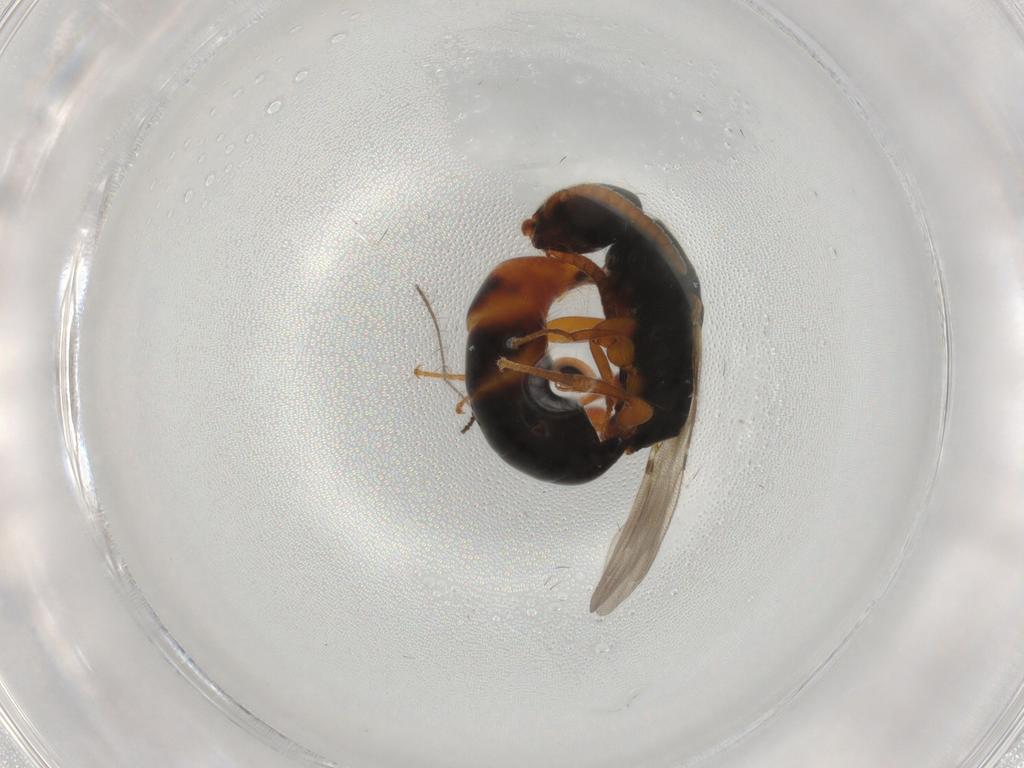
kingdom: Animalia
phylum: Arthropoda
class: Insecta
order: Hymenoptera
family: Bethylidae
